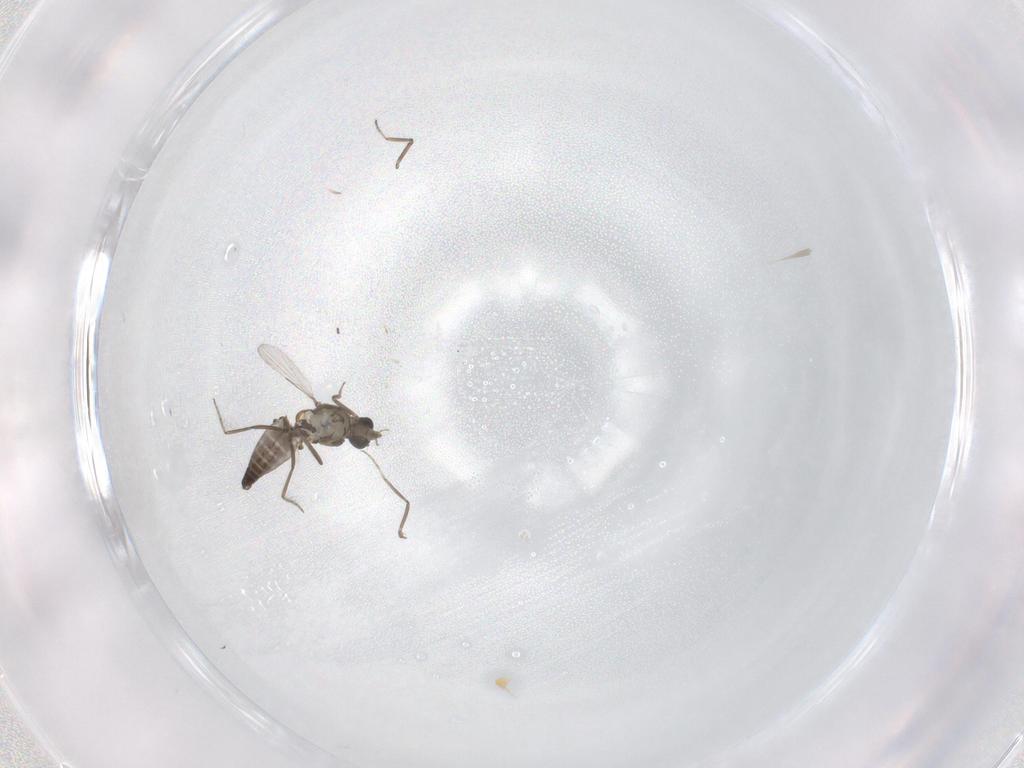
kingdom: Animalia
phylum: Arthropoda
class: Insecta
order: Diptera
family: Ceratopogonidae
